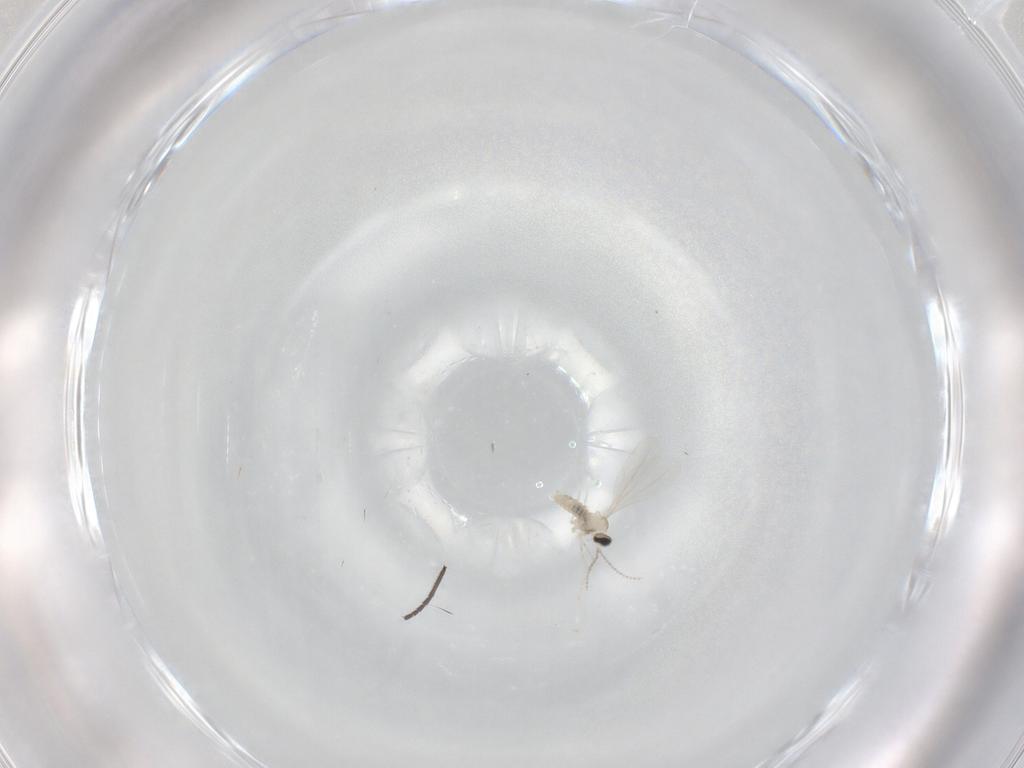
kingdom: Animalia
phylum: Arthropoda
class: Insecta
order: Diptera
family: Cecidomyiidae
